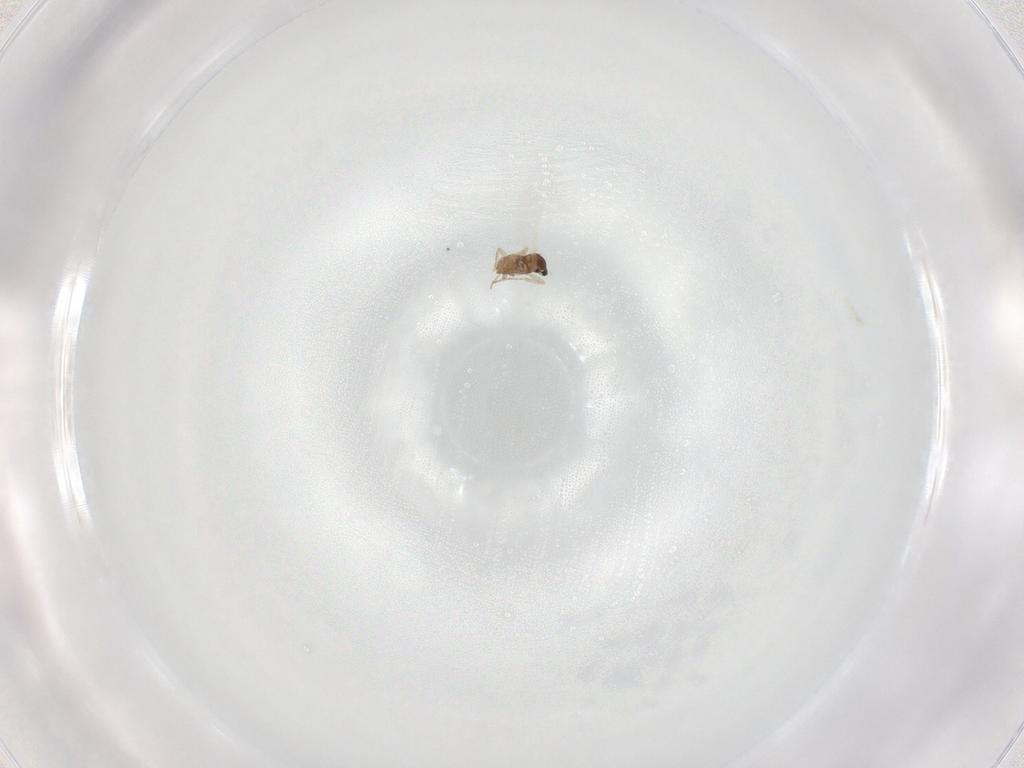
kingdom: Animalia
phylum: Arthropoda
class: Insecta
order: Diptera
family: Cecidomyiidae
